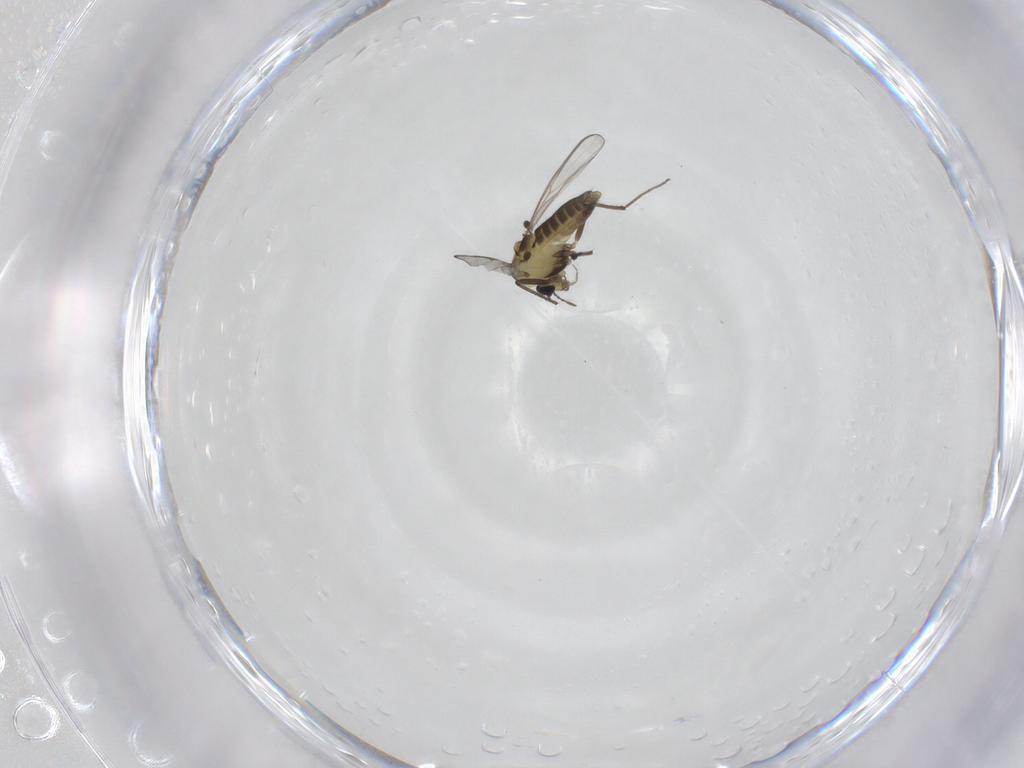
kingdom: Animalia
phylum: Arthropoda
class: Insecta
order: Diptera
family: Chironomidae
